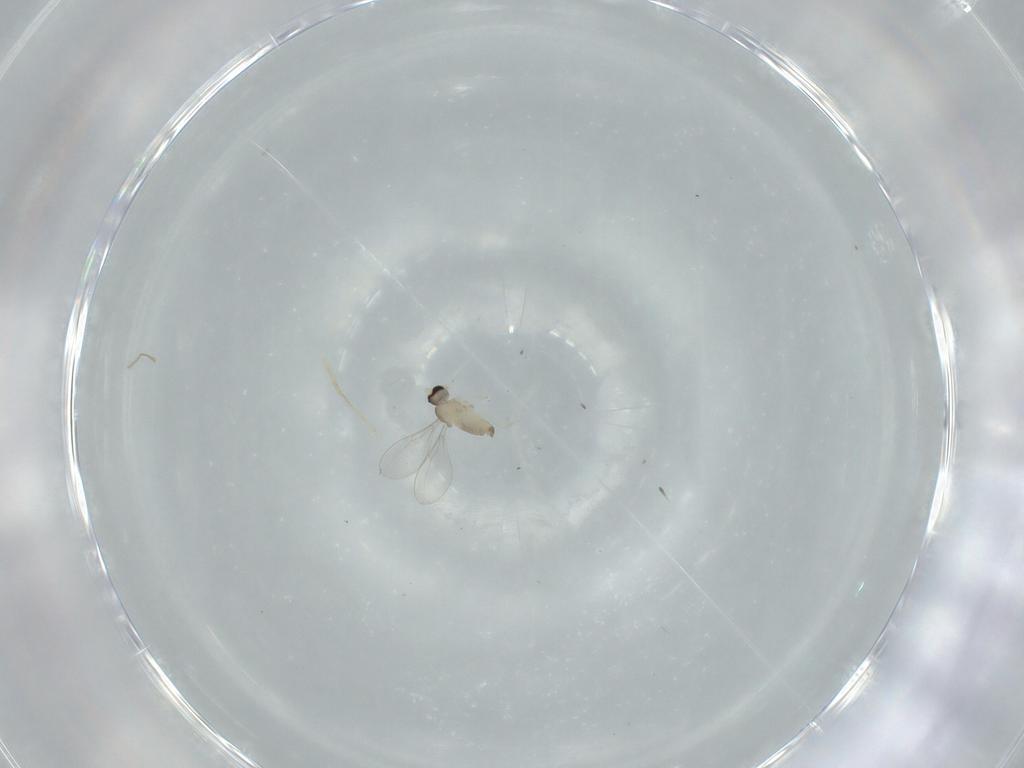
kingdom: Animalia
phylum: Arthropoda
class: Insecta
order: Diptera
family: Cecidomyiidae
